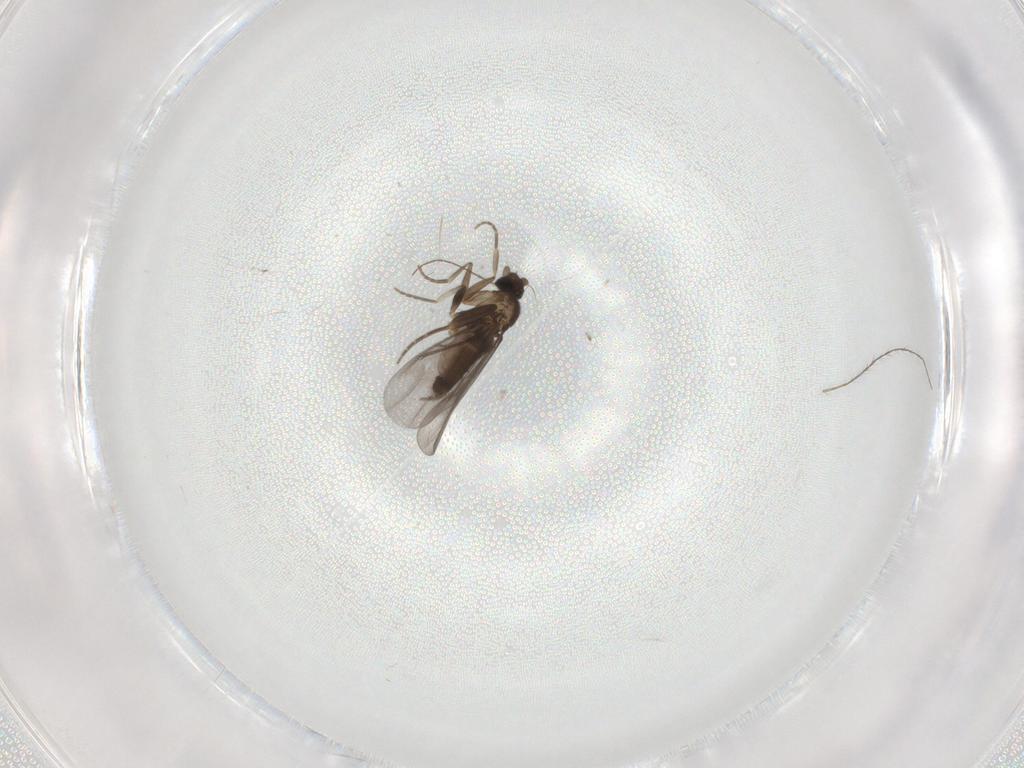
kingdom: Animalia
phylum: Arthropoda
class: Insecta
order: Diptera
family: Phoridae
